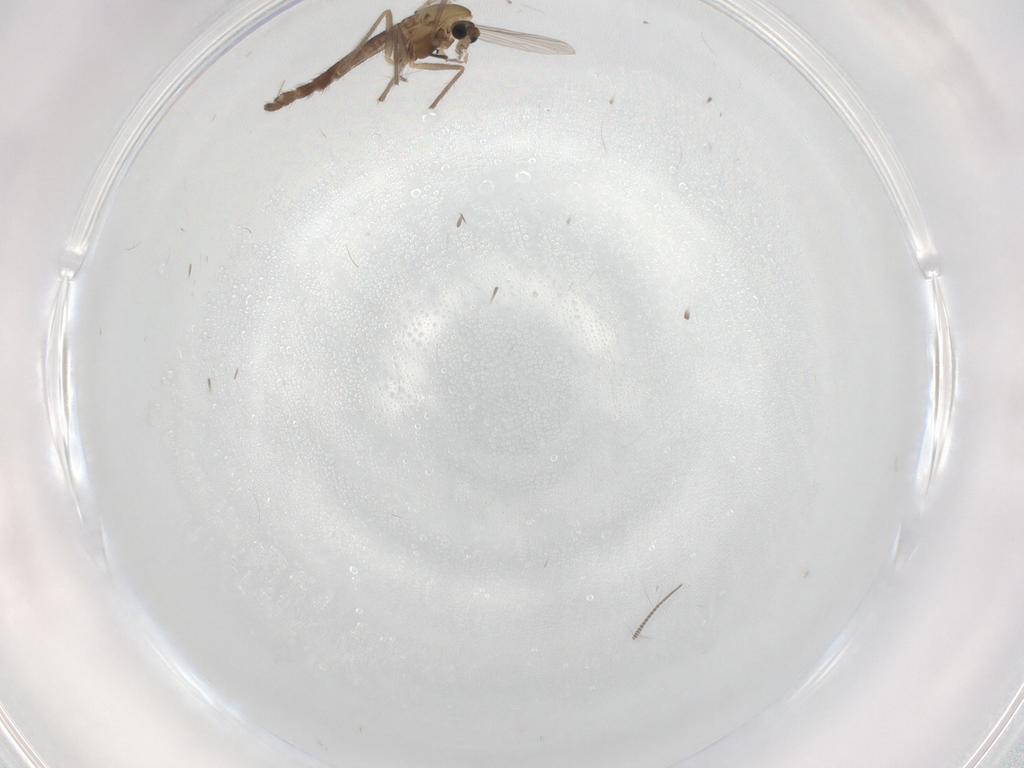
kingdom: Animalia
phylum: Arthropoda
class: Insecta
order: Diptera
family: Chironomidae
